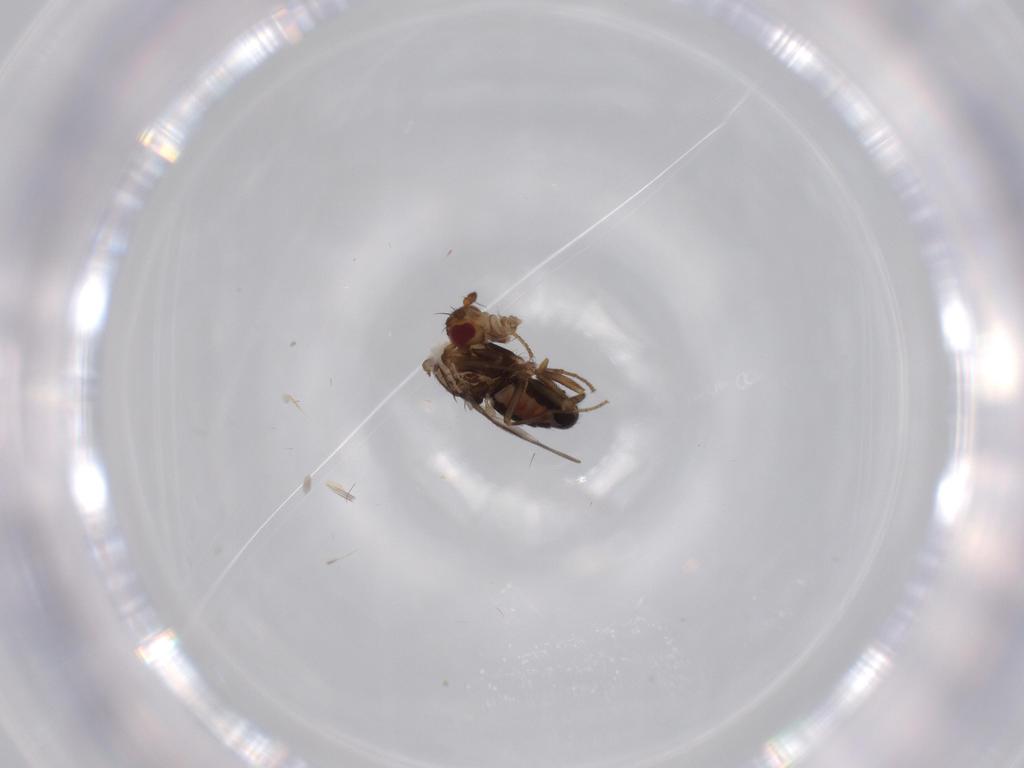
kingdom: Animalia
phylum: Arthropoda
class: Insecta
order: Diptera
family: Sphaeroceridae
